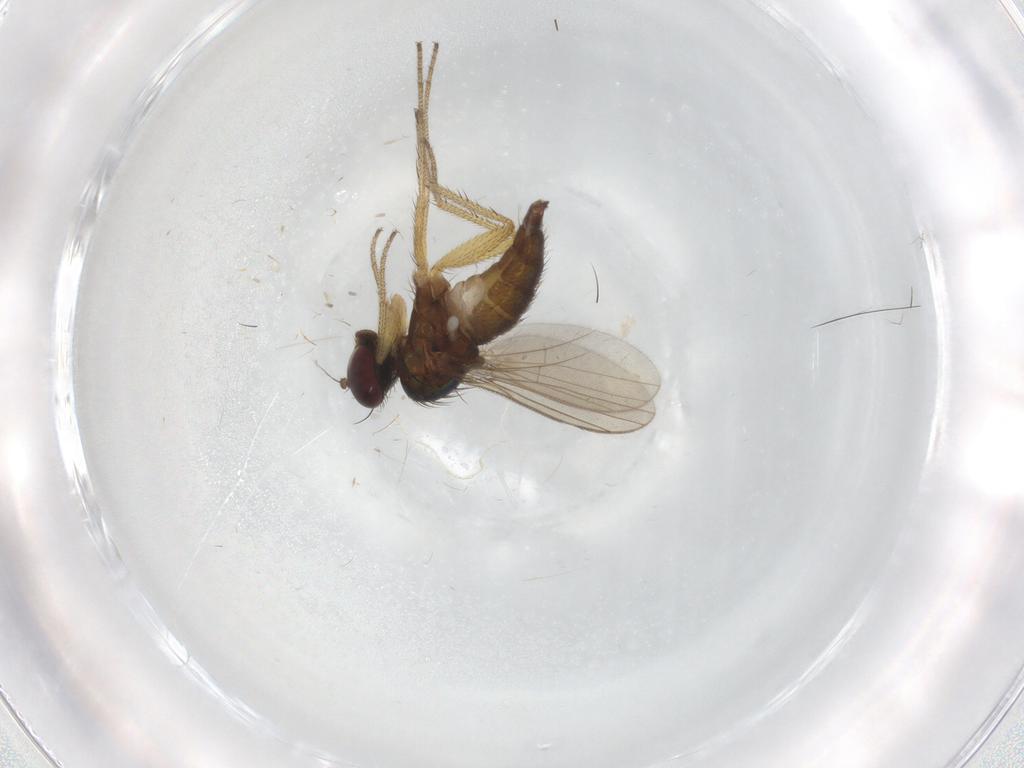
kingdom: Animalia
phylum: Arthropoda
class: Insecta
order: Diptera
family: Dolichopodidae
